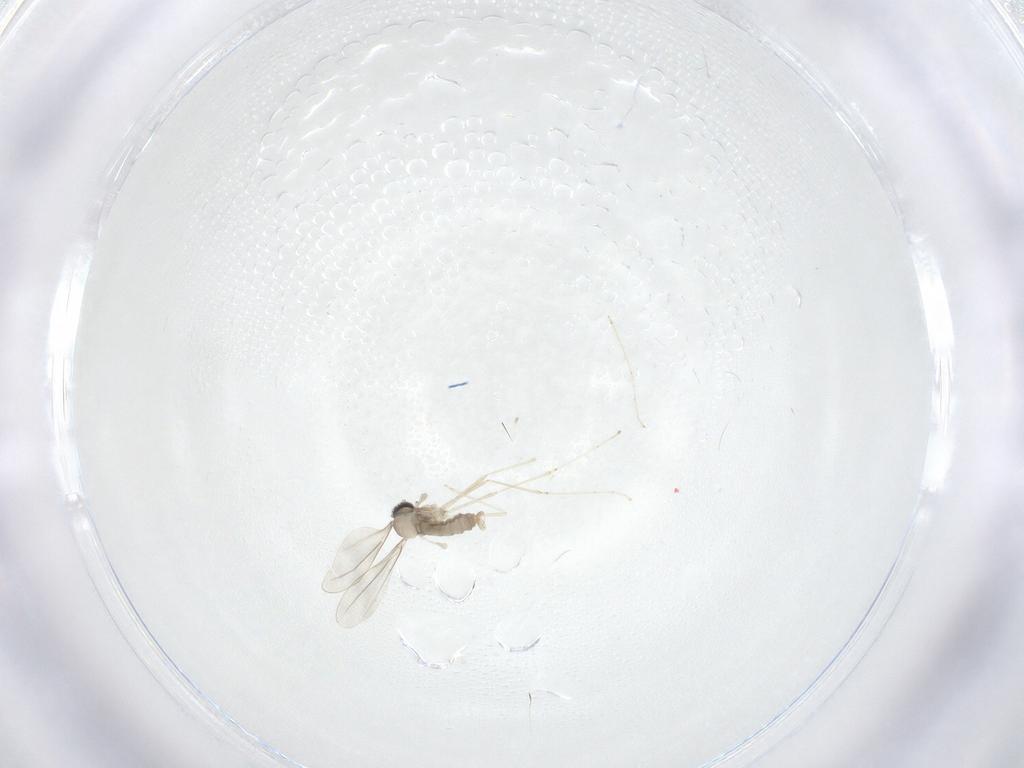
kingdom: Animalia
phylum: Arthropoda
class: Insecta
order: Diptera
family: Cecidomyiidae
